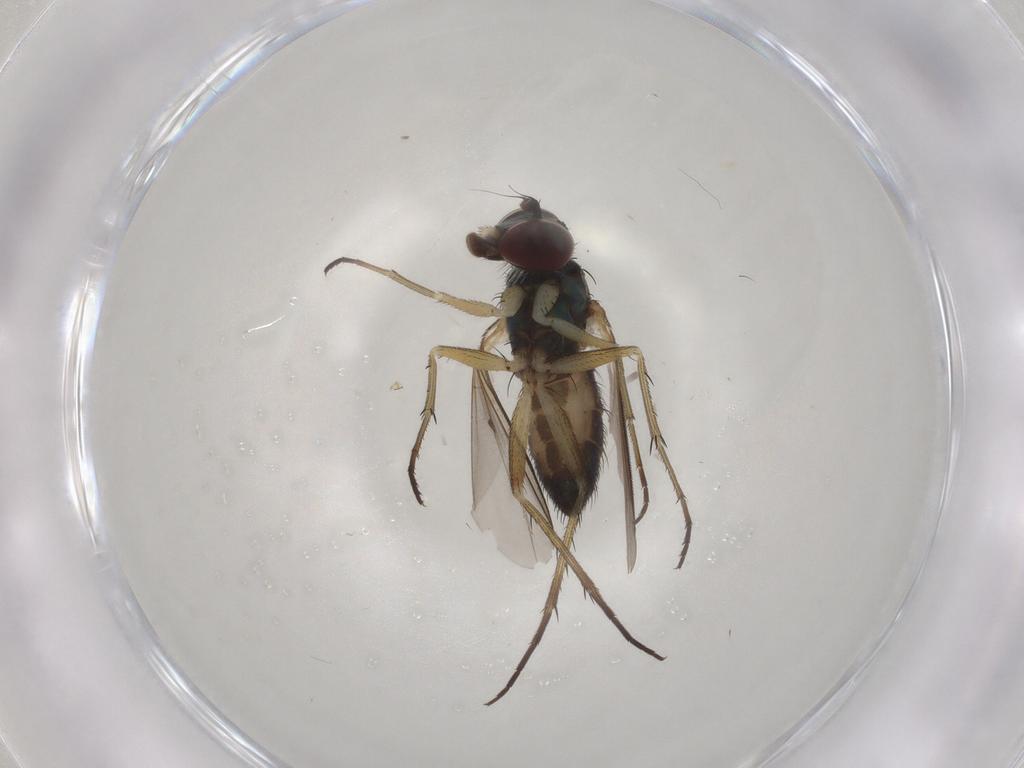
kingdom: Animalia
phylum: Arthropoda
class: Insecta
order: Diptera
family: Dolichopodidae
